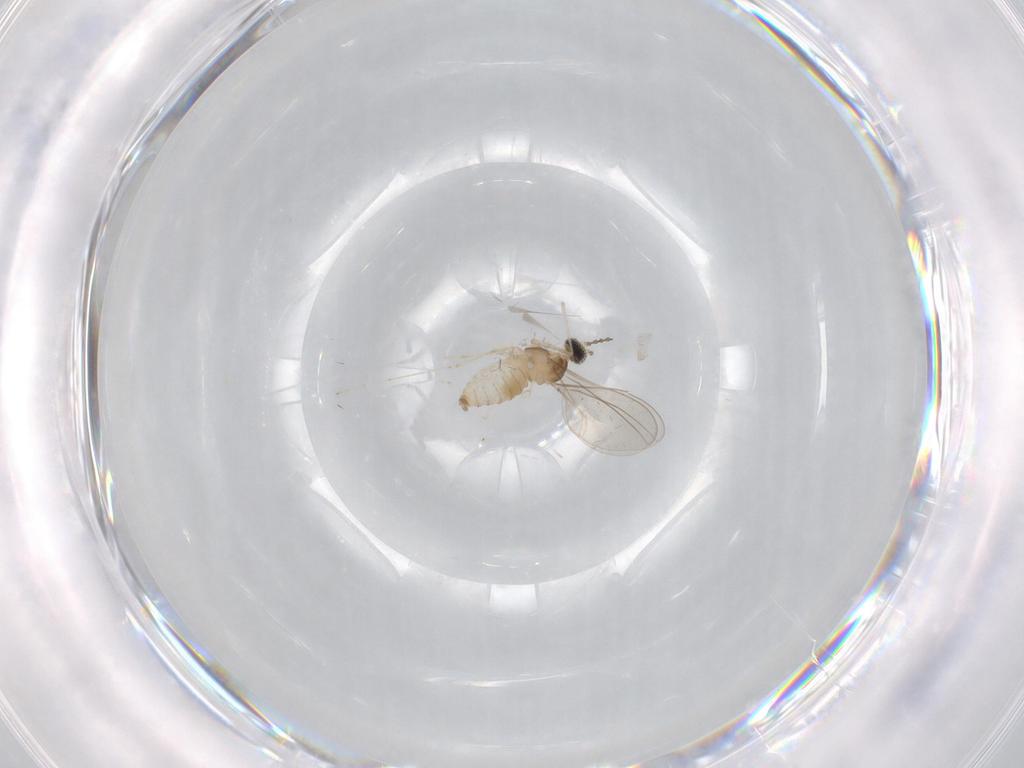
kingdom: Animalia
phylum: Arthropoda
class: Insecta
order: Diptera
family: Cecidomyiidae
